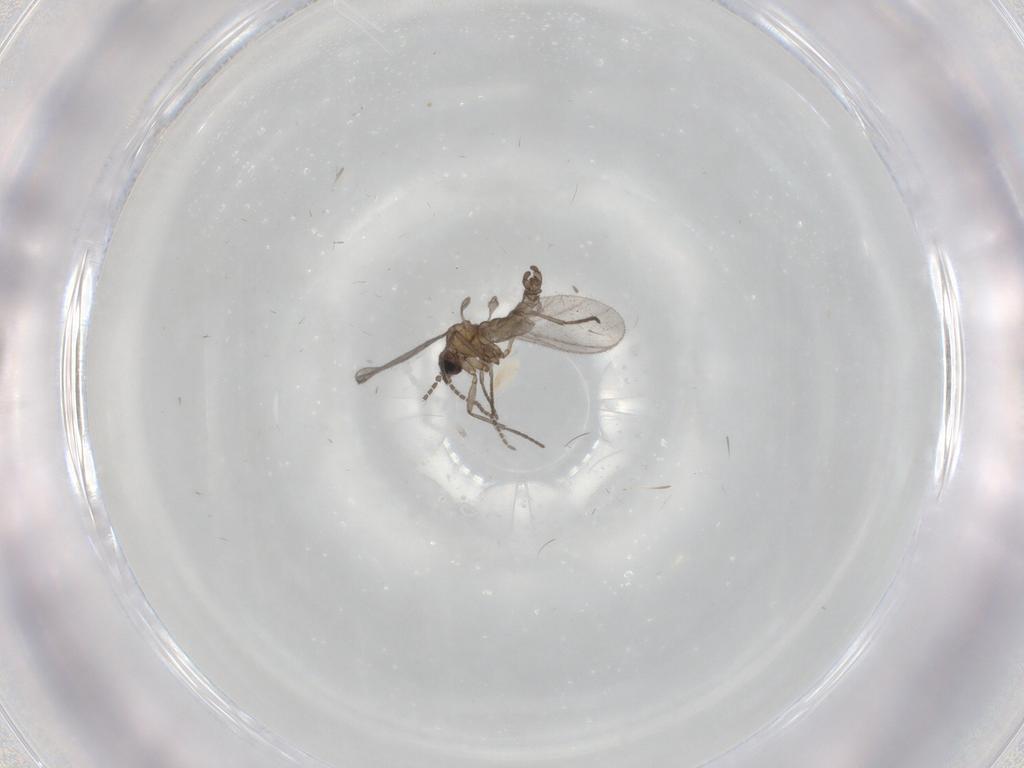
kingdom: Animalia
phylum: Arthropoda
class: Insecta
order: Diptera
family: Sciaridae
